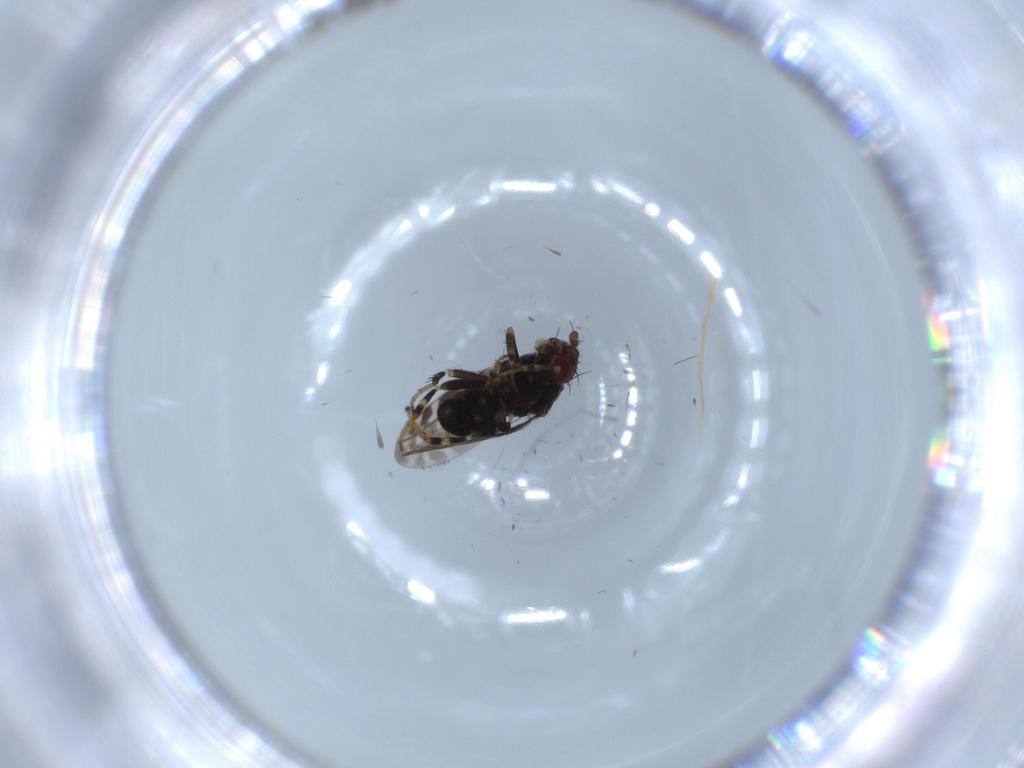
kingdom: Animalia
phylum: Arthropoda
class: Insecta
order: Diptera
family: Sphaeroceridae
